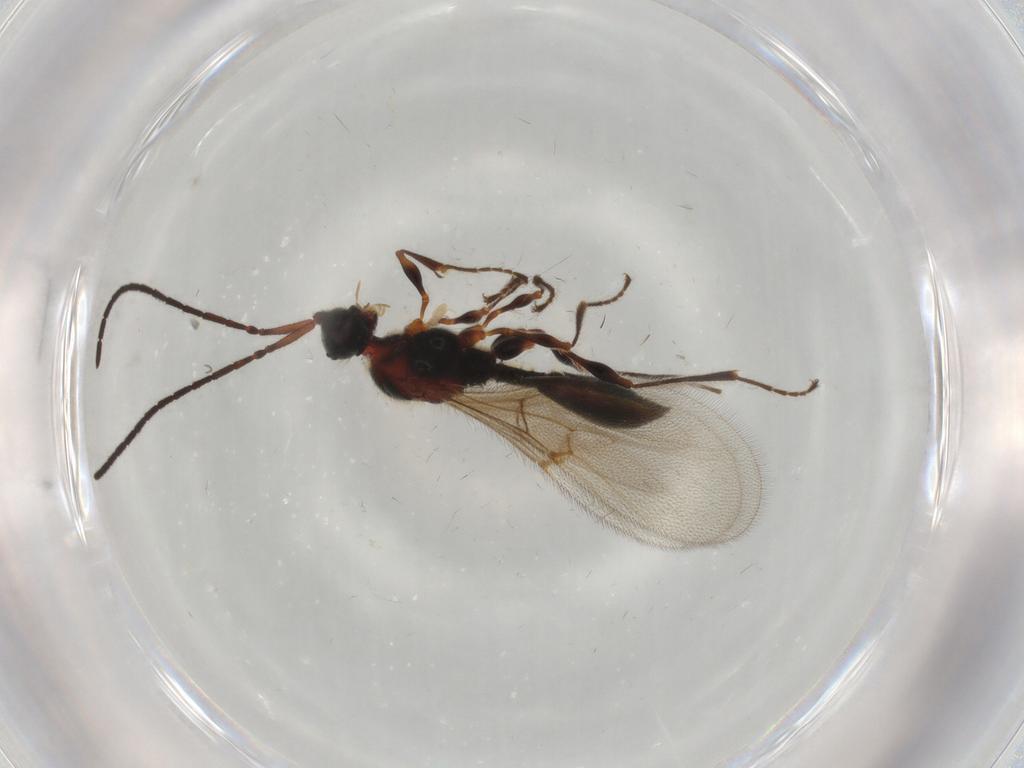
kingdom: Animalia
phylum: Arthropoda
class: Insecta
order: Hymenoptera
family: Diapriidae
